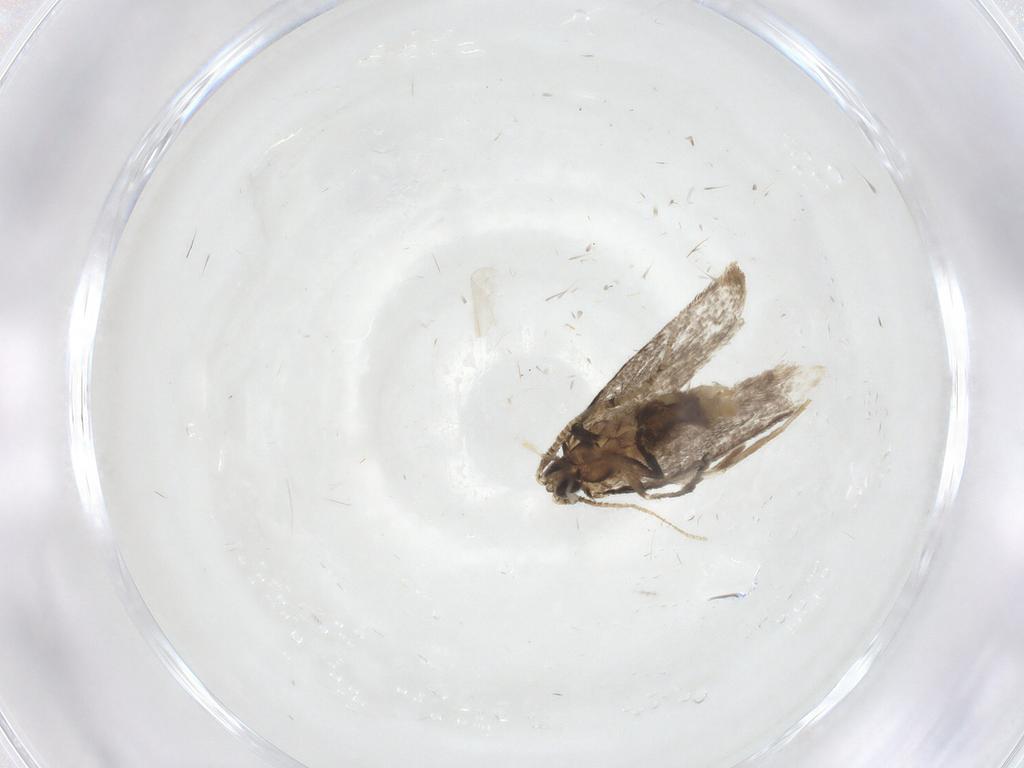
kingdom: Animalia
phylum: Arthropoda
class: Insecta
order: Lepidoptera
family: Dryadaulidae
